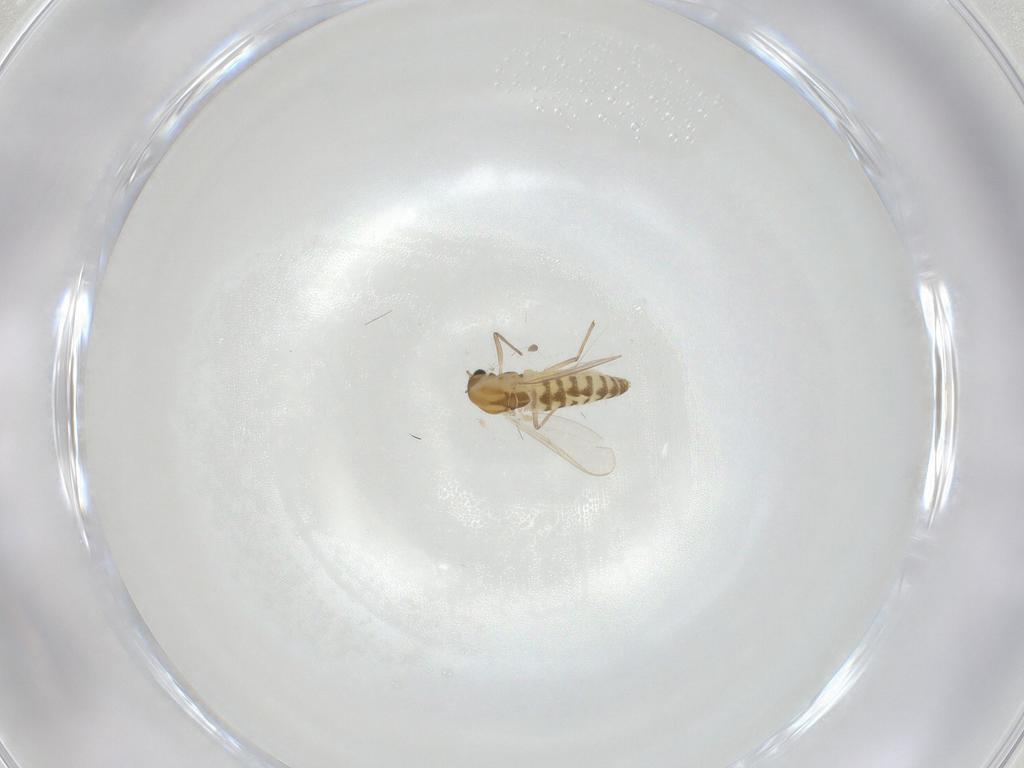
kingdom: Animalia
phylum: Arthropoda
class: Insecta
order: Diptera
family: Chironomidae
